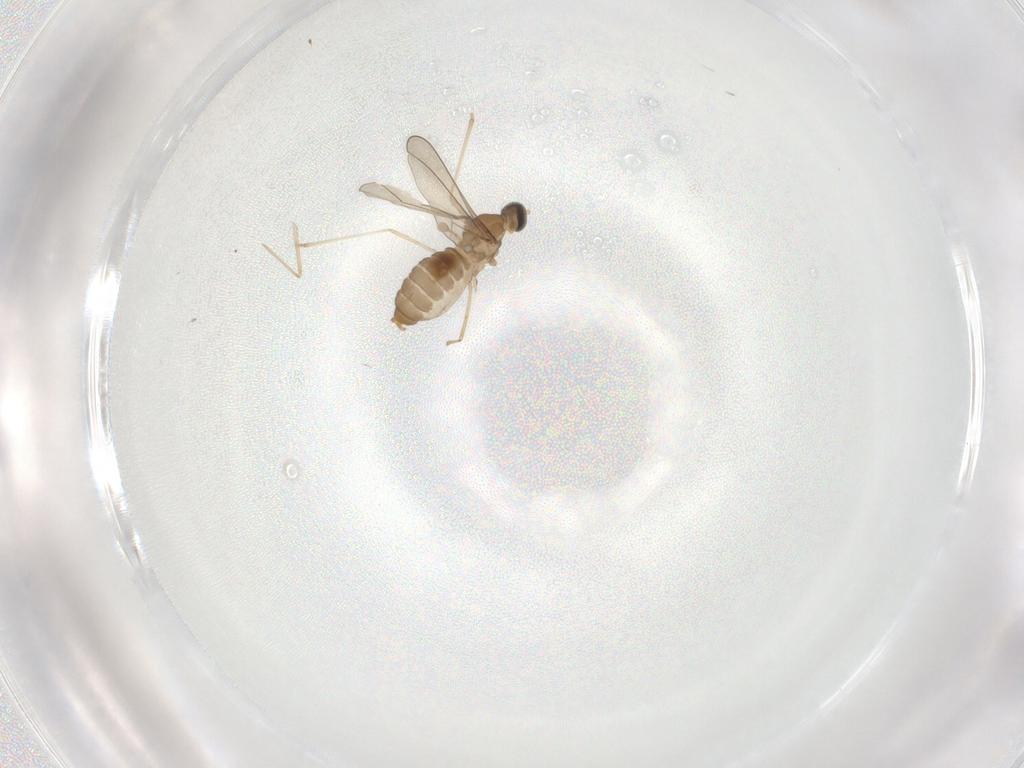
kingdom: Animalia
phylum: Arthropoda
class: Insecta
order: Diptera
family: Cecidomyiidae
